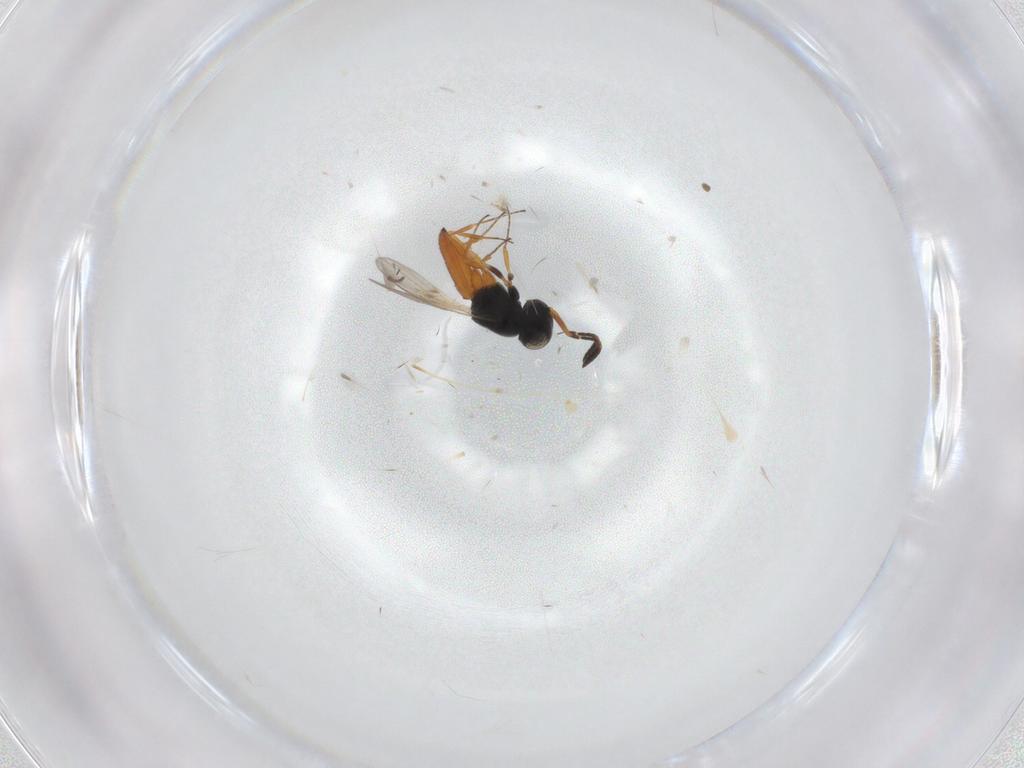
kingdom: Animalia
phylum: Arthropoda
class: Insecta
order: Hymenoptera
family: Scelionidae
